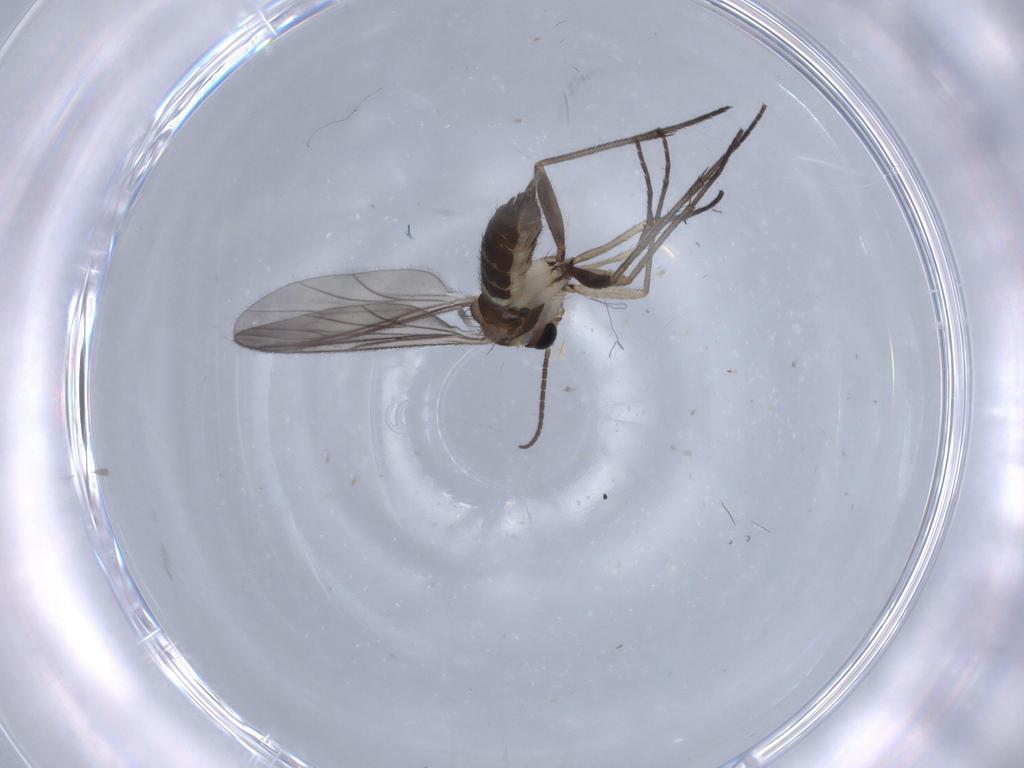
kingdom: Animalia
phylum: Arthropoda
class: Insecta
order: Diptera
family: Sciaridae
